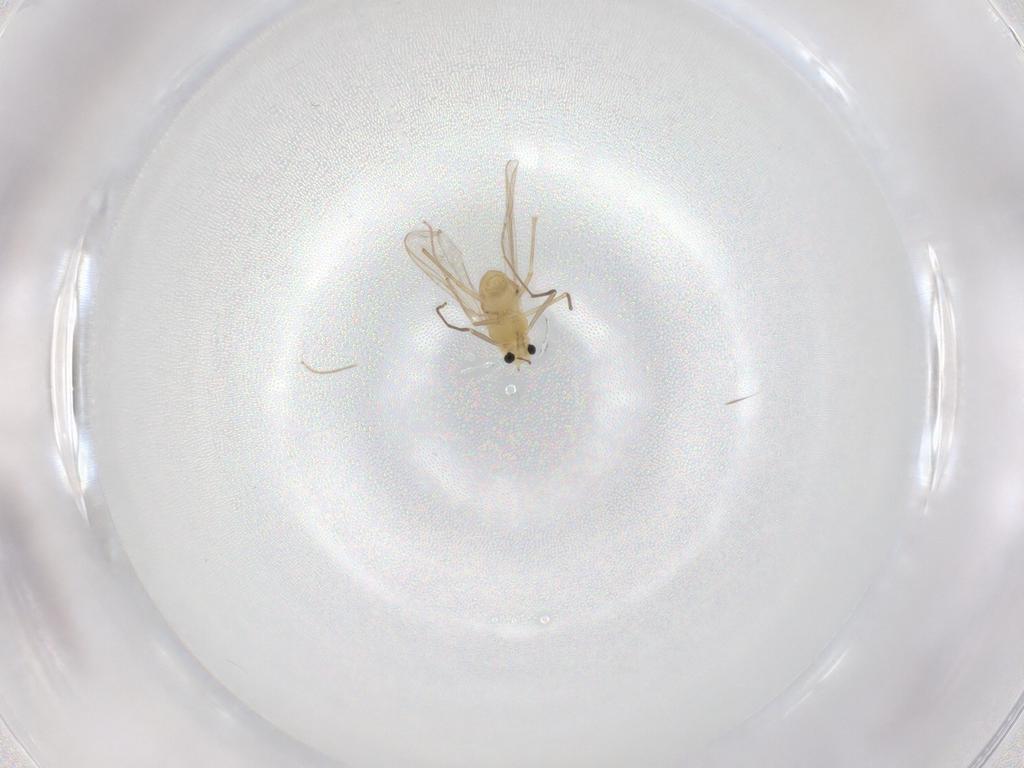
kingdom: Animalia
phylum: Arthropoda
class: Insecta
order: Diptera
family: Chironomidae
